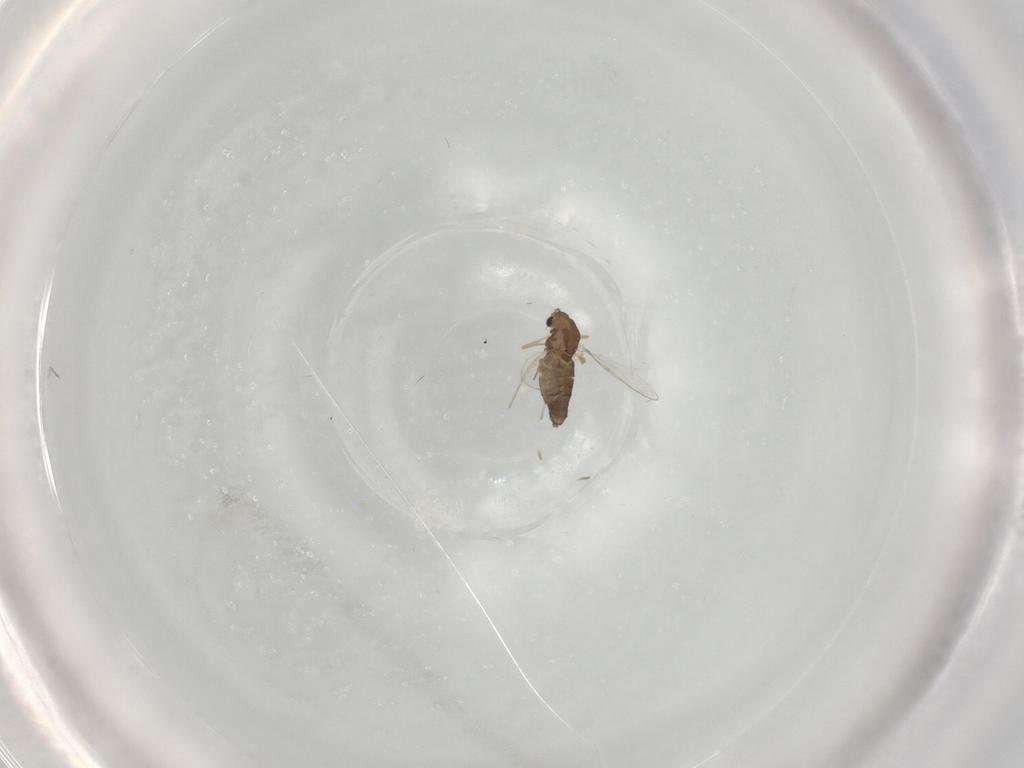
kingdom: Animalia
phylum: Arthropoda
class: Insecta
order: Diptera
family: Chironomidae
